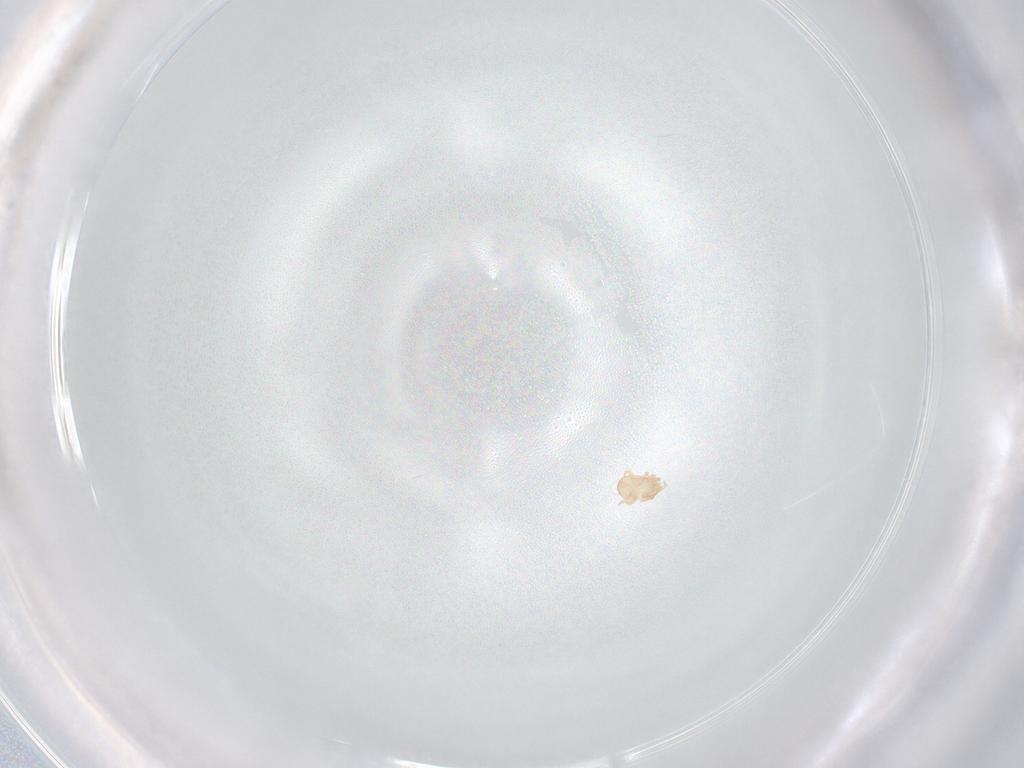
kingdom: Animalia
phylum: Arthropoda
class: Arachnida
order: Mesostigmata
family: Ascidae
